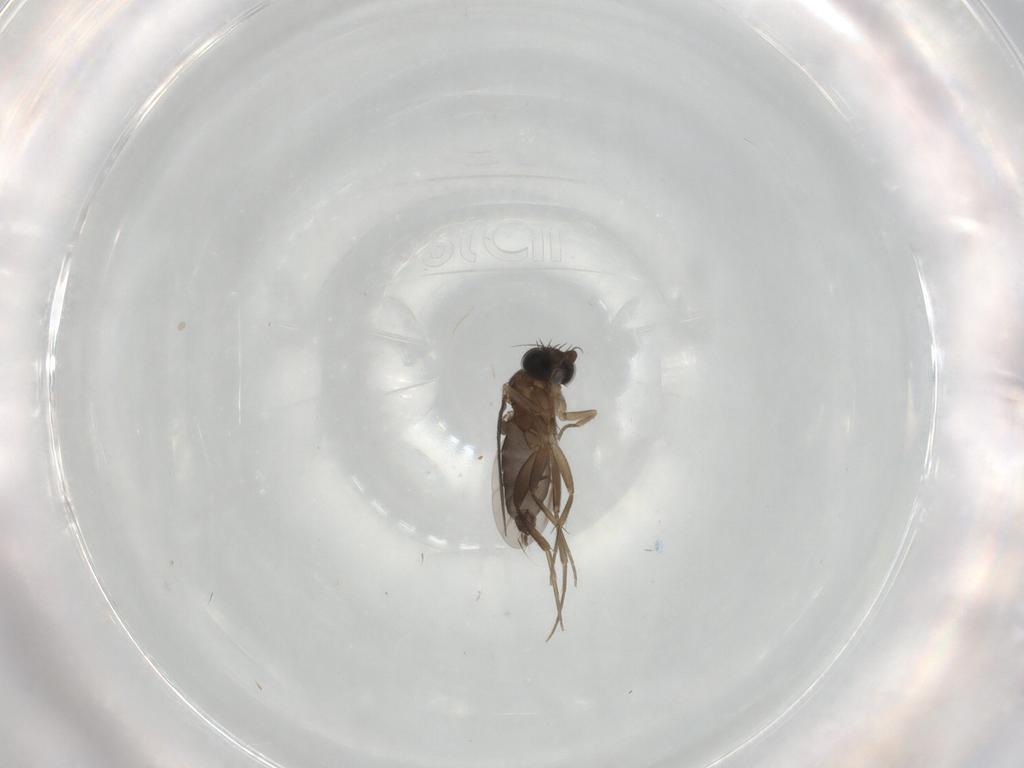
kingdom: Animalia
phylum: Arthropoda
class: Insecta
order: Diptera
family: Phoridae
